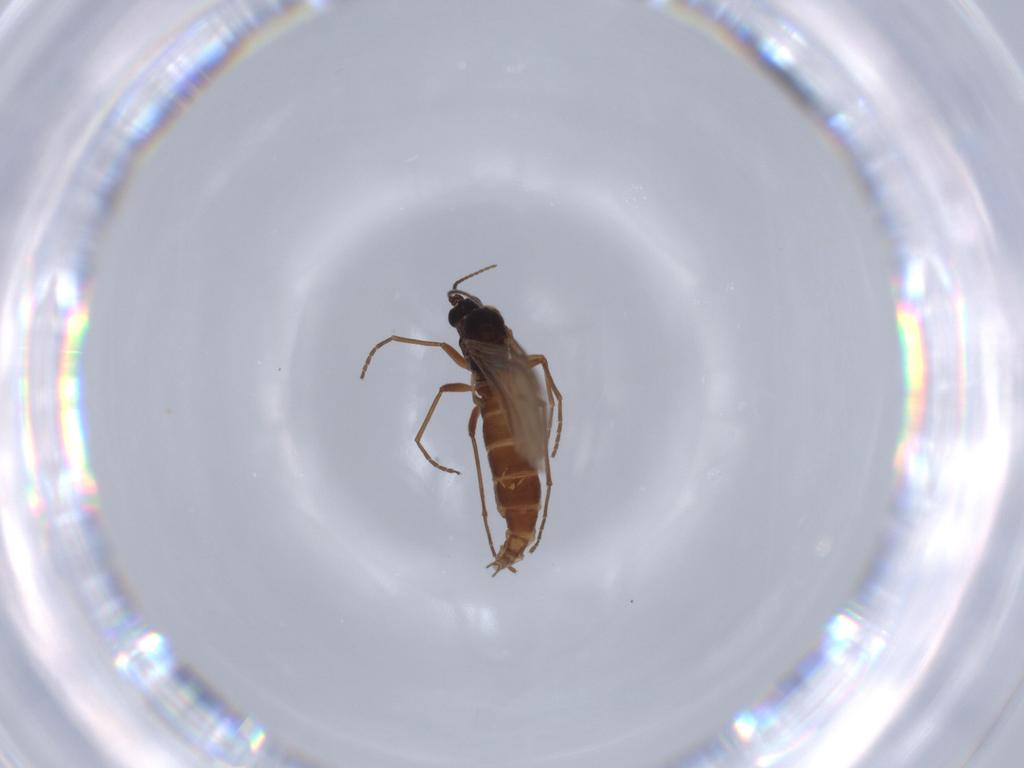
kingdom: Animalia
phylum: Arthropoda
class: Insecta
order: Diptera
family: Sciaridae
